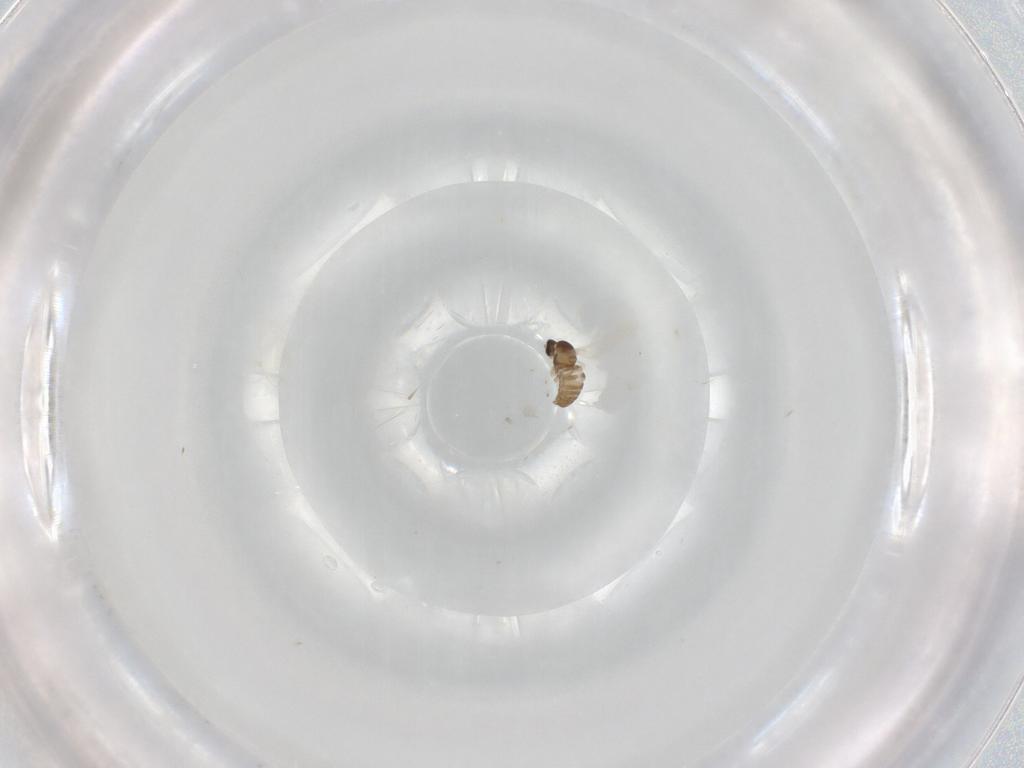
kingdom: Animalia
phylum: Arthropoda
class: Insecta
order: Diptera
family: Cecidomyiidae
